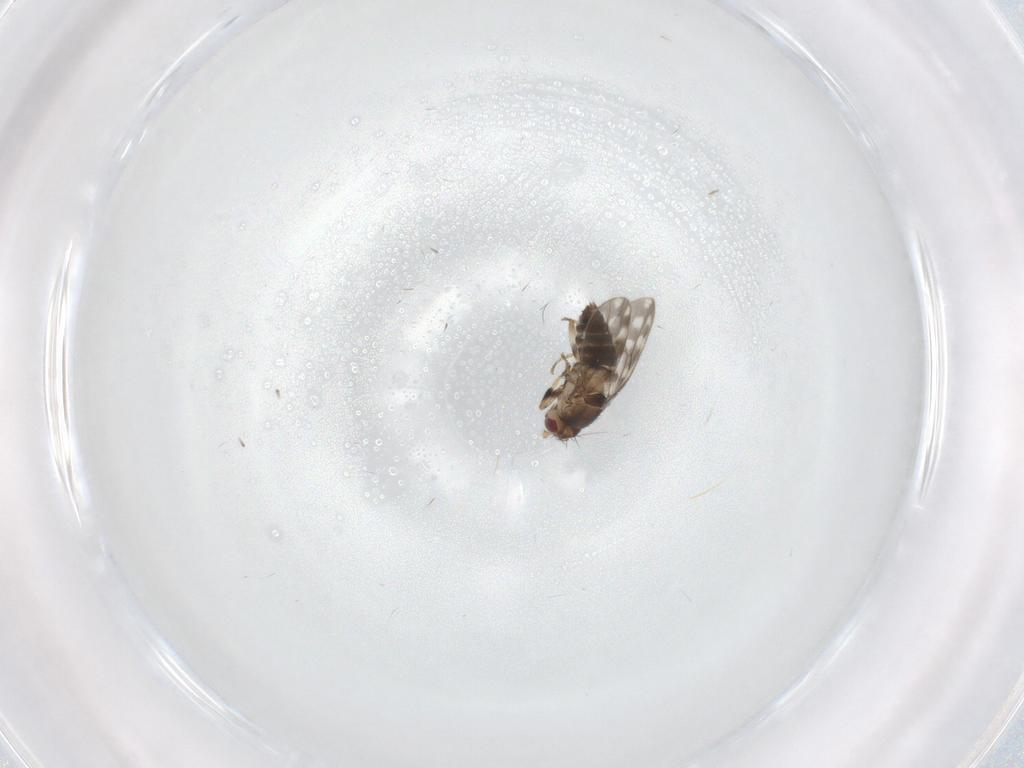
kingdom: Animalia
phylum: Arthropoda
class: Insecta
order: Diptera
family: Sphaeroceridae
